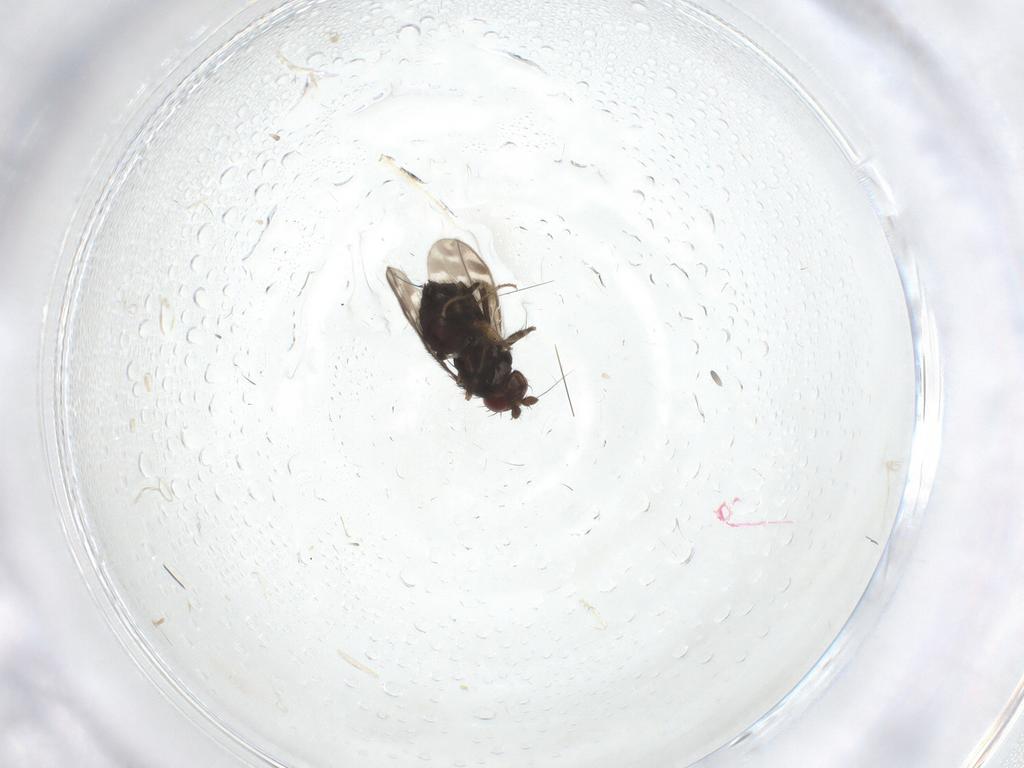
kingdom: Animalia
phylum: Arthropoda
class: Insecta
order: Diptera
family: Sphaeroceridae
